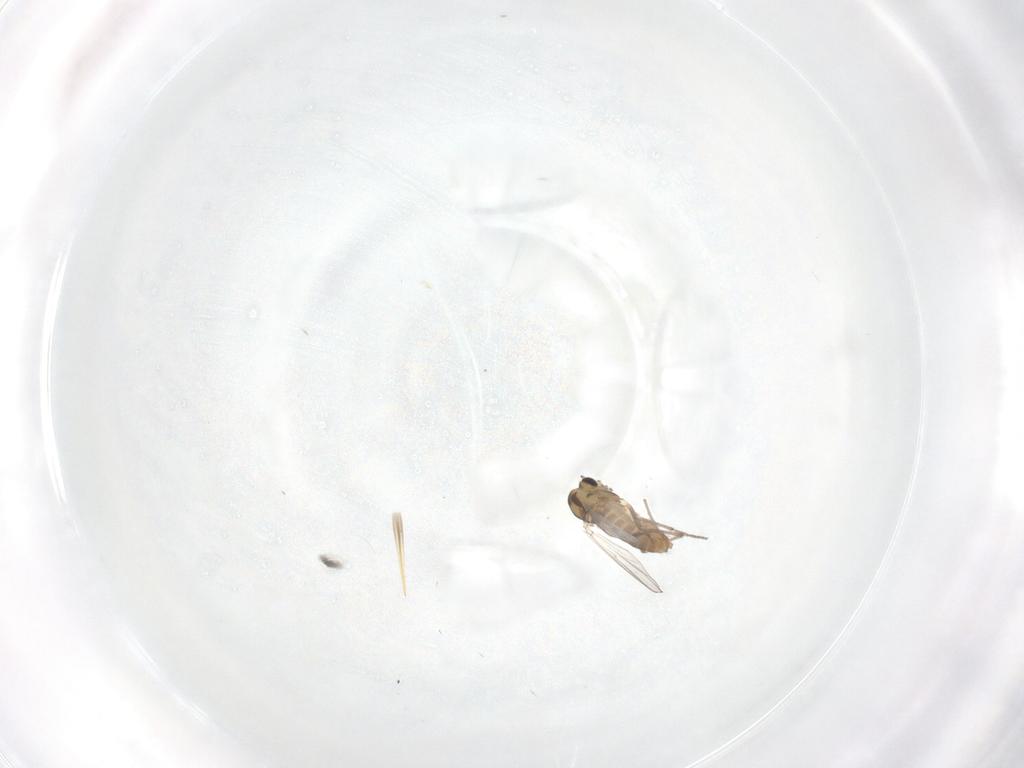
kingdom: Animalia
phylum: Arthropoda
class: Insecta
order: Diptera
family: Chironomidae
